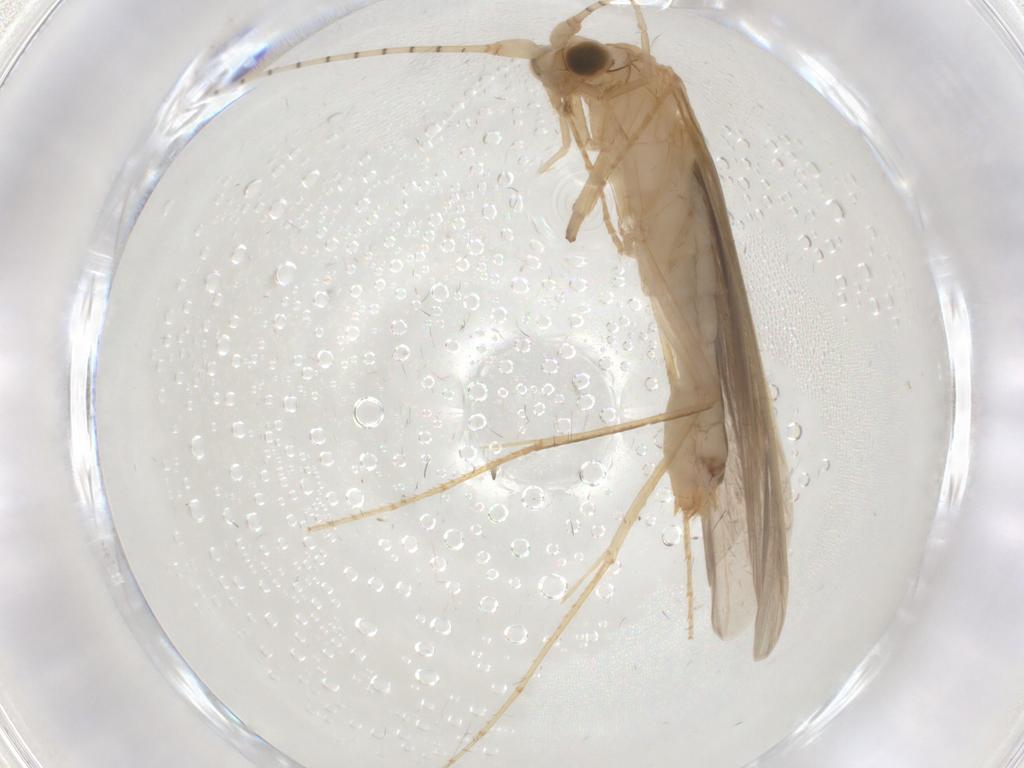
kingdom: Animalia
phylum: Arthropoda
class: Insecta
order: Trichoptera
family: Leptoceridae
